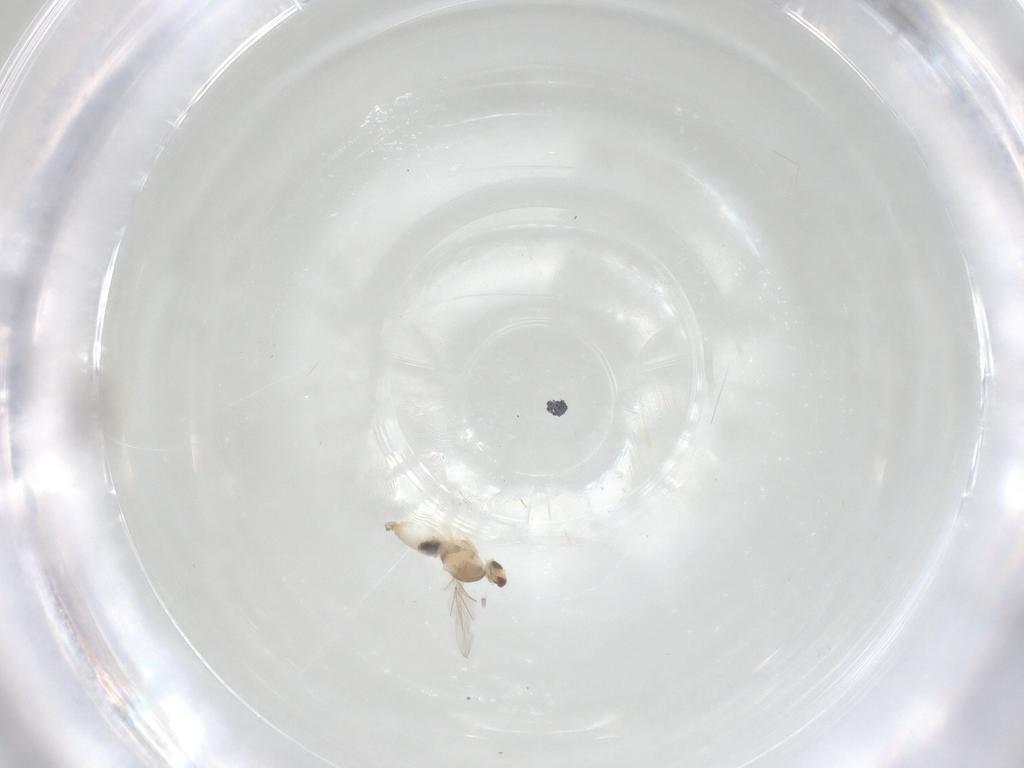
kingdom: Animalia
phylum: Arthropoda
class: Insecta
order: Diptera
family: Cecidomyiidae
